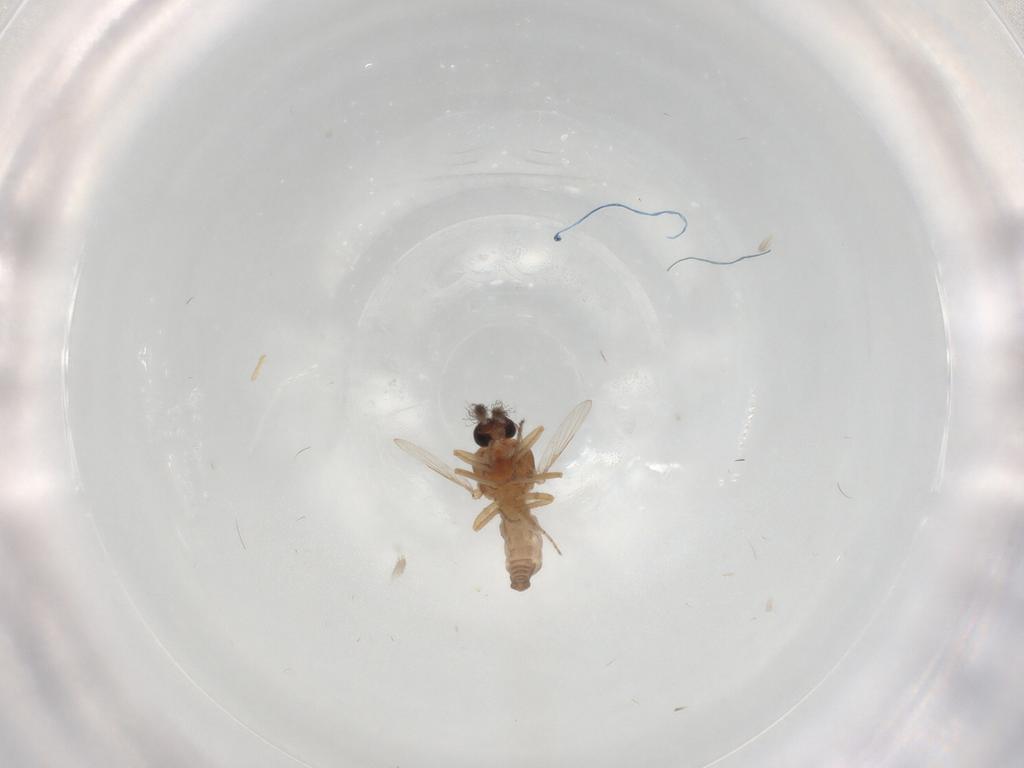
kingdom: Animalia
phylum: Arthropoda
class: Insecta
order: Diptera
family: Ceratopogonidae
